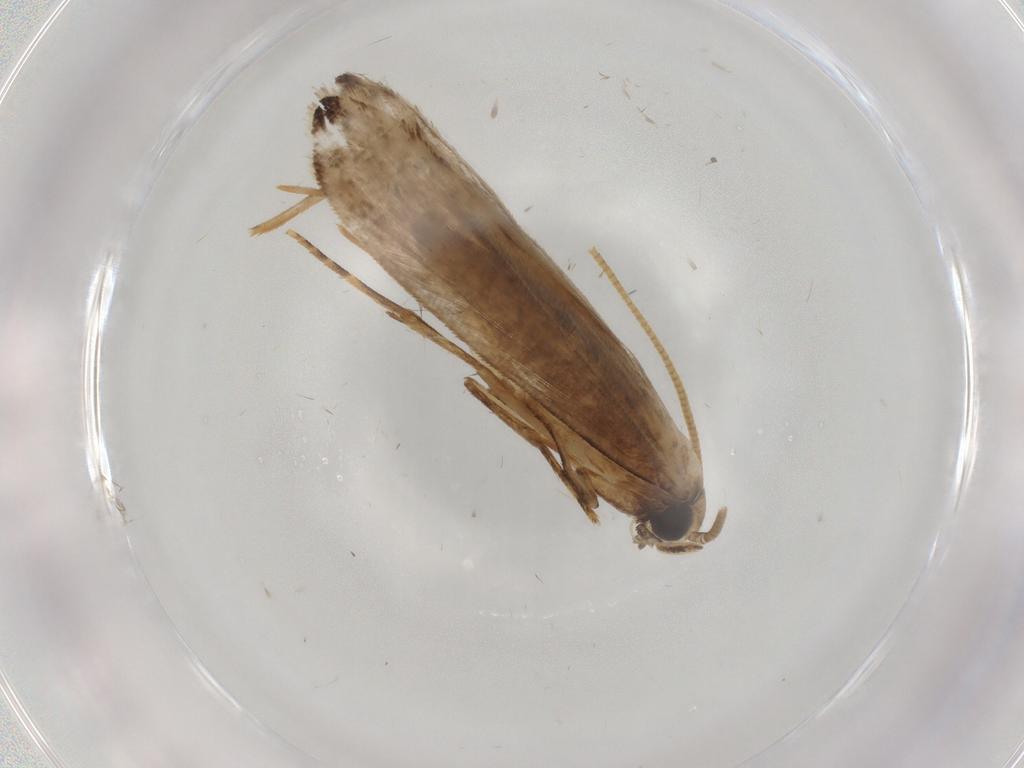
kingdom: Animalia
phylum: Arthropoda
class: Insecta
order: Lepidoptera
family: Tineidae
